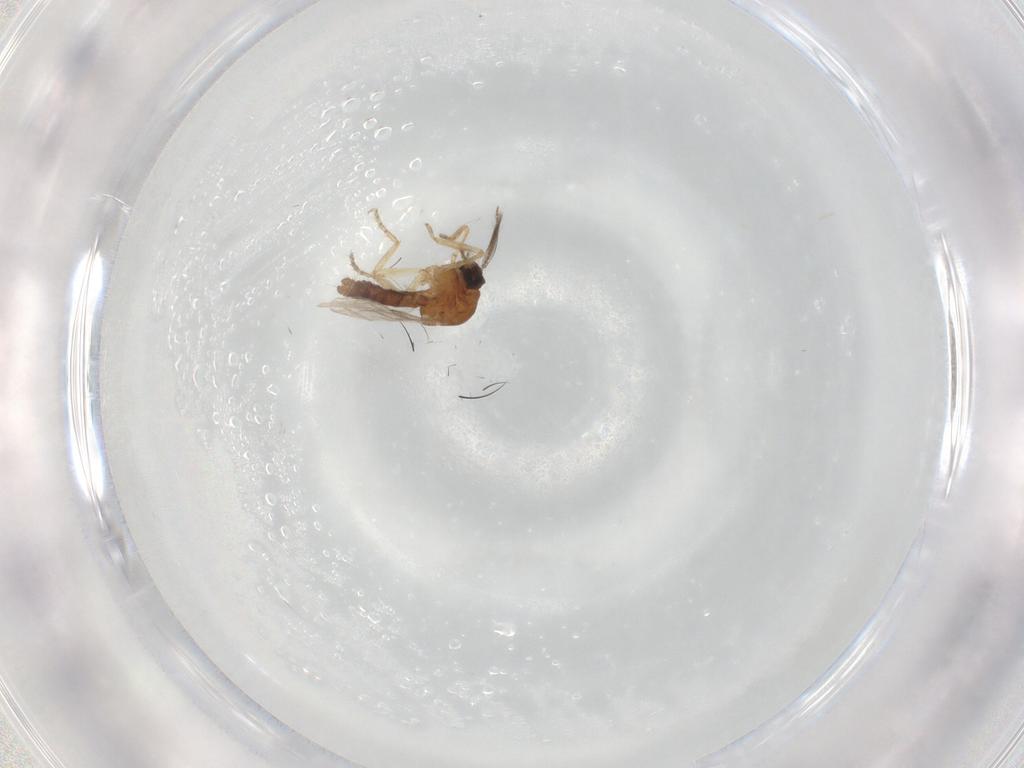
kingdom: Animalia
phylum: Arthropoda
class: Insecta
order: Diptera
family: Ceratopogonidae
